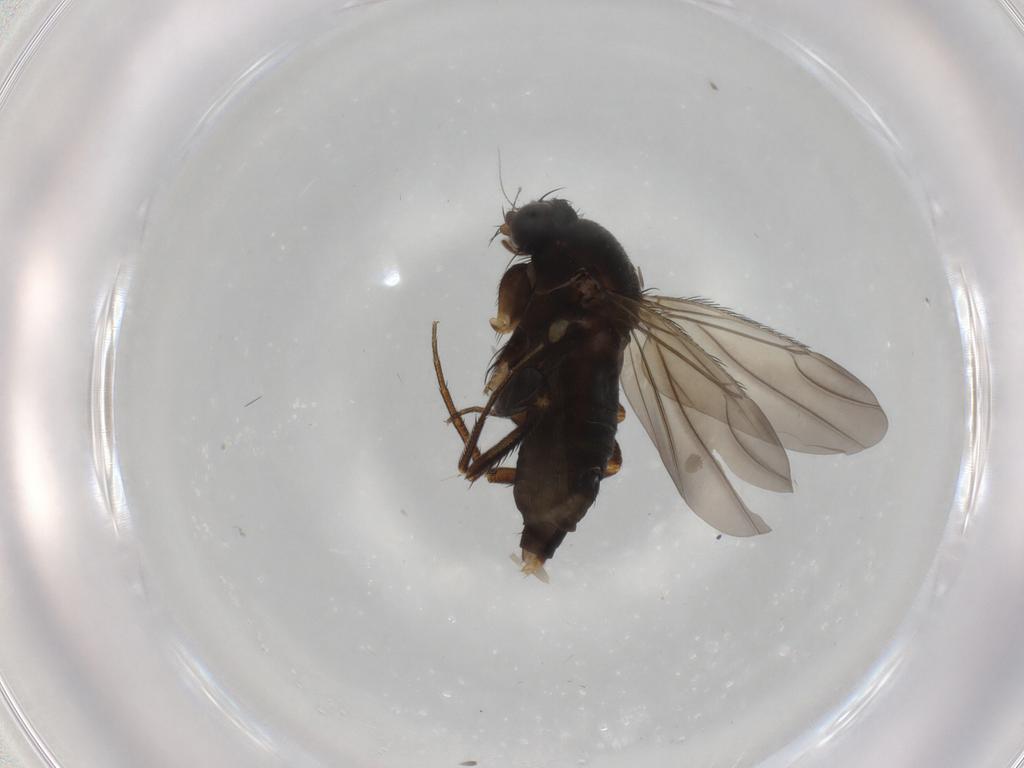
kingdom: Animalia
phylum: Arthropoda
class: Insecta
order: Diptera
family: Phoridae
